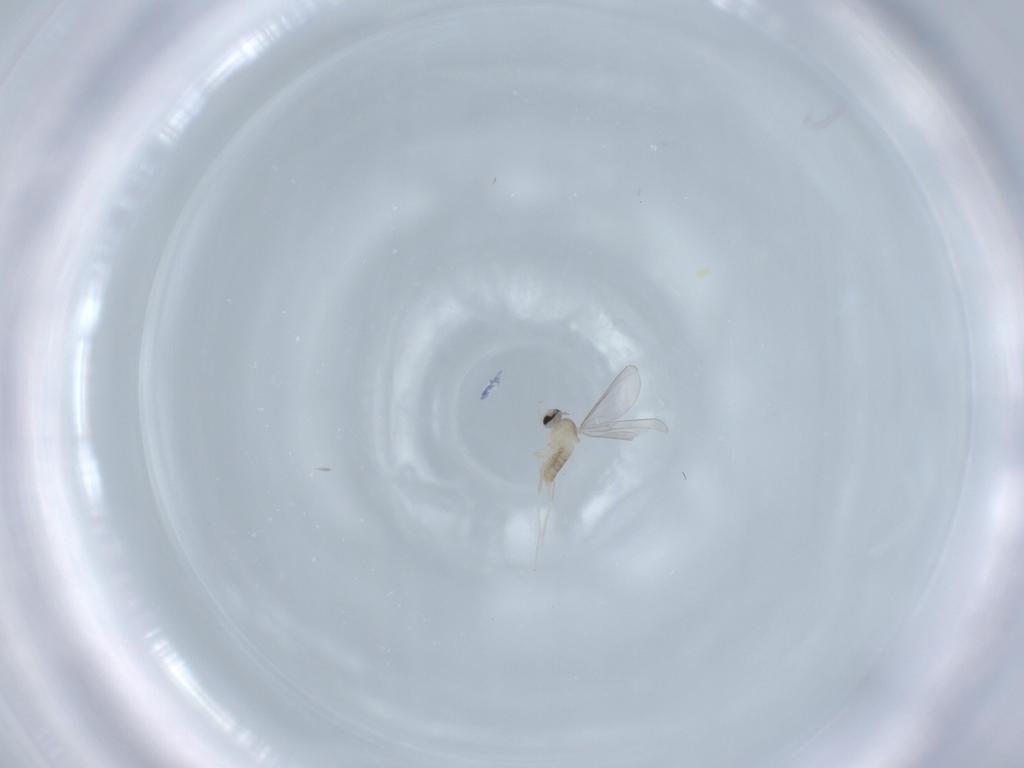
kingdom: Animalia
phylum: Arthropoda
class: Insecta
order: Diptera
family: Cecidomyiidae
